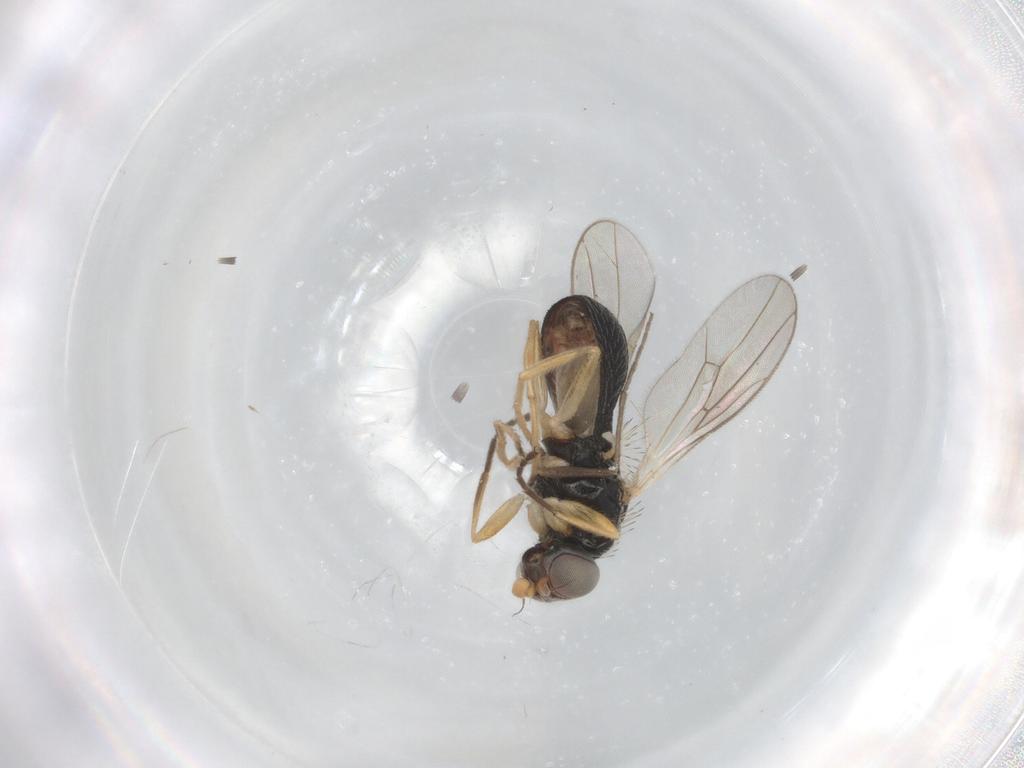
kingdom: Animalia
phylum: Arthropoda
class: Insecta
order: Diptera
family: Chloropidae
